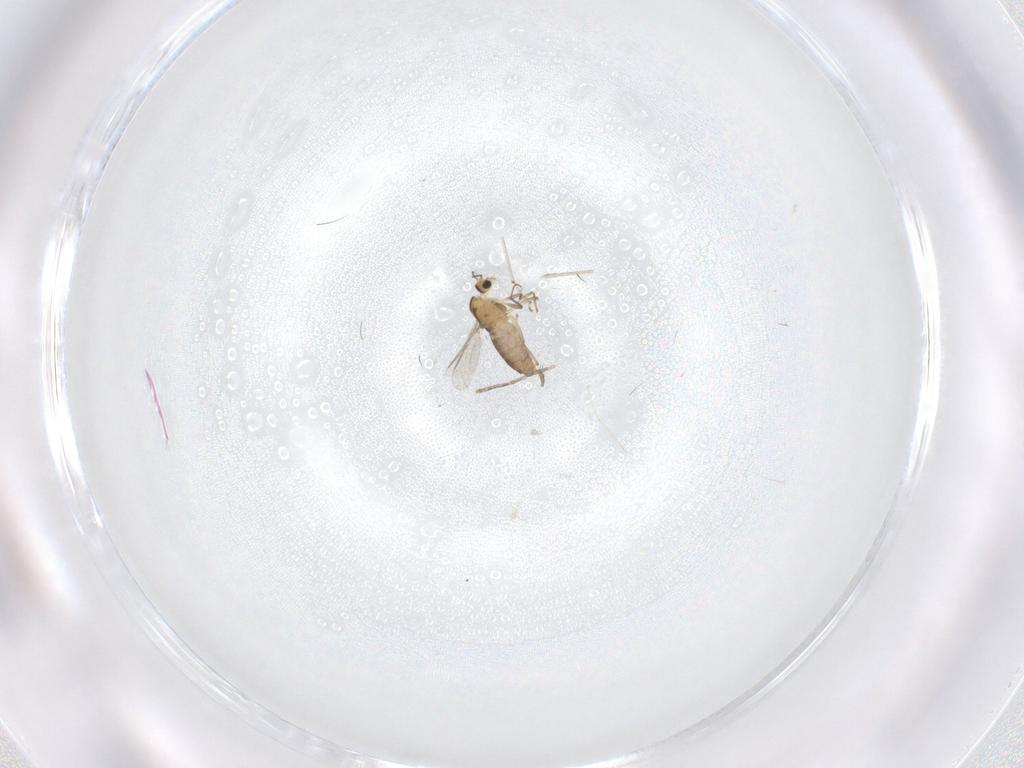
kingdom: Animalia
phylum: Arthropoda
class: Insecta
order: Diptera
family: Chironomidae
